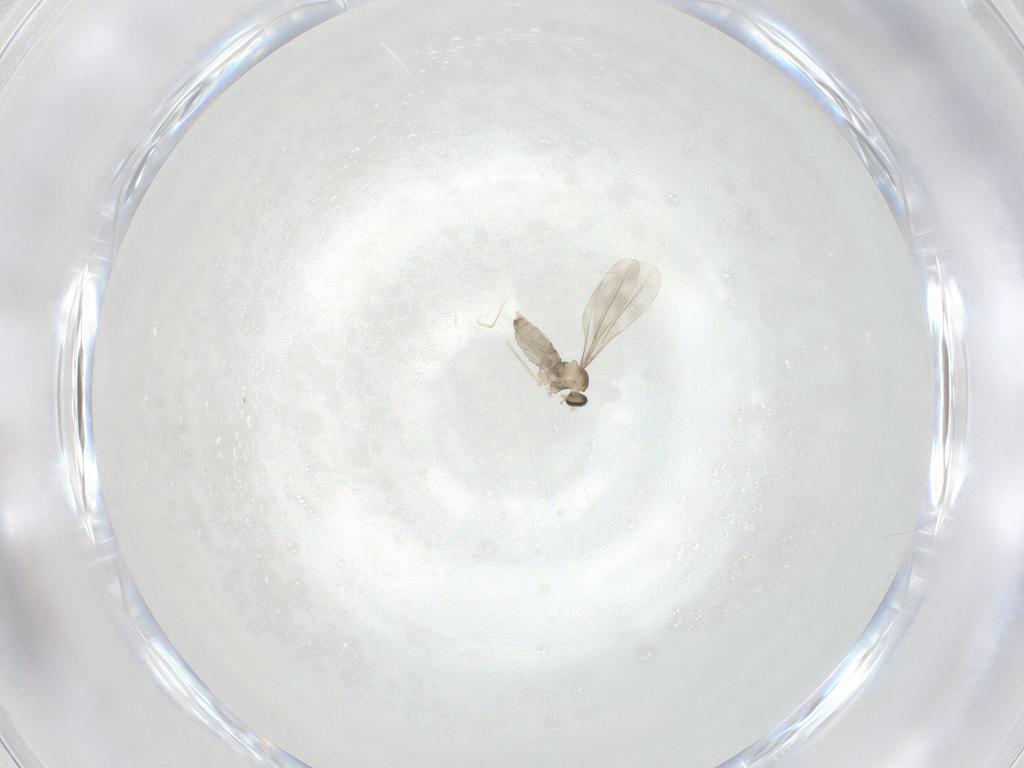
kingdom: Animalia
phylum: Arthropoda
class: Insecta
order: Diptera
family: Cecidomyiidae
